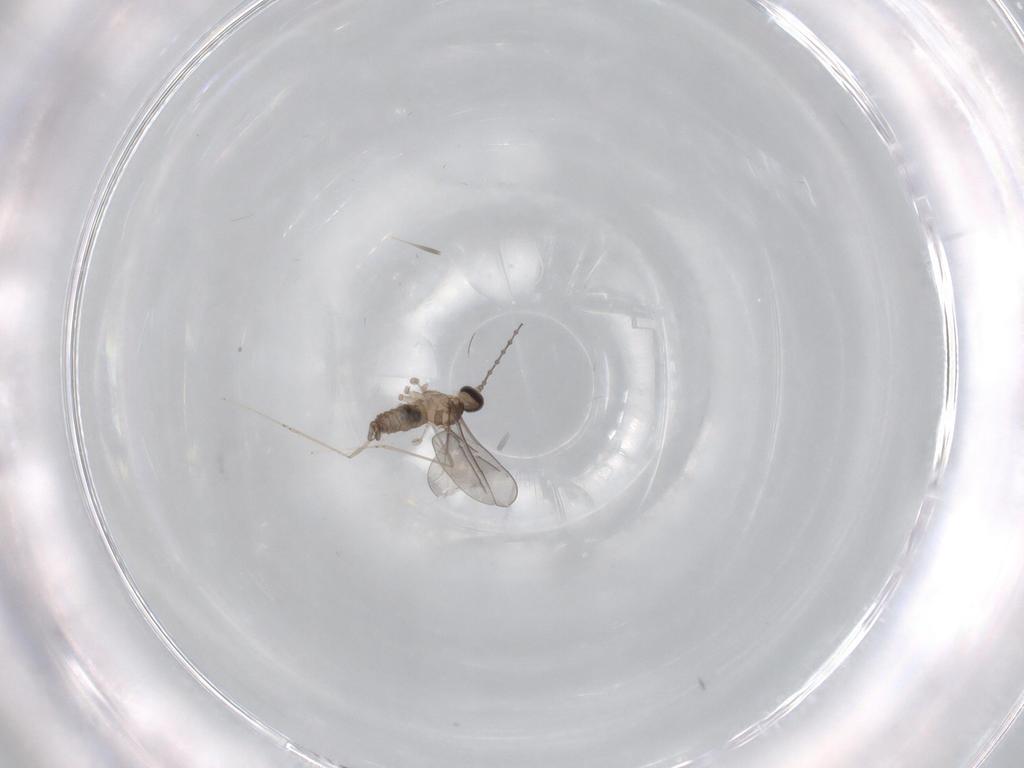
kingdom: Animalia
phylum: Arthropoda
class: Insecta
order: Diptera
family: Cecidomyiidae
